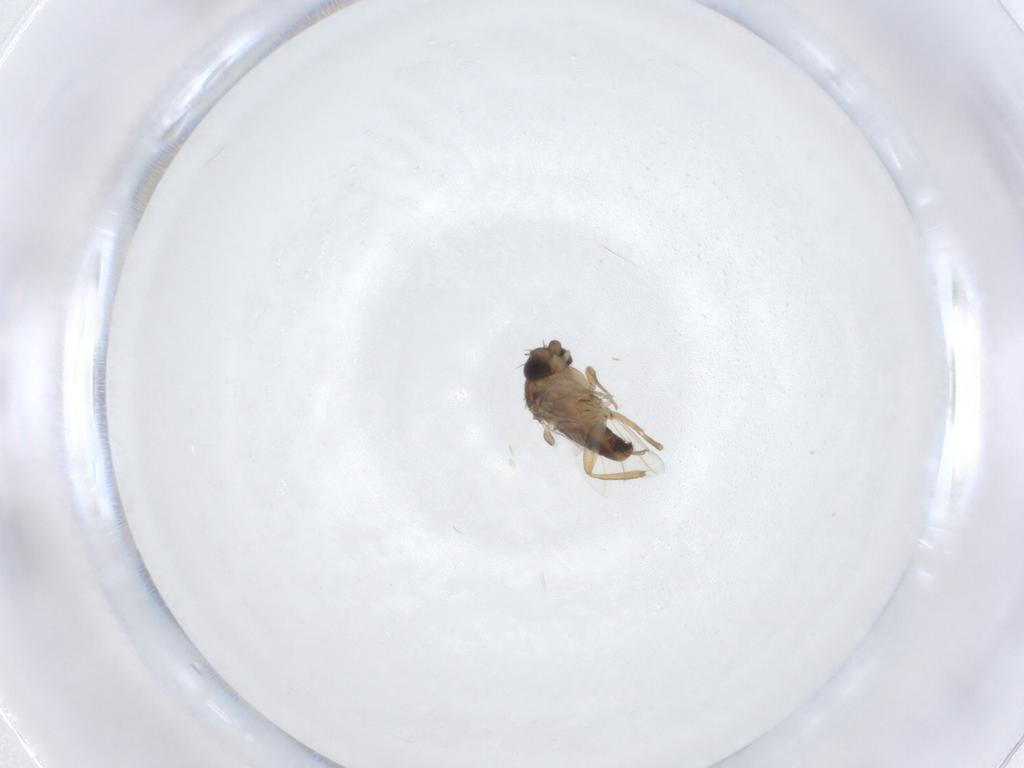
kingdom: Animalia
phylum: Arthropoda
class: Insecta
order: Diptera
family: Phoridae
